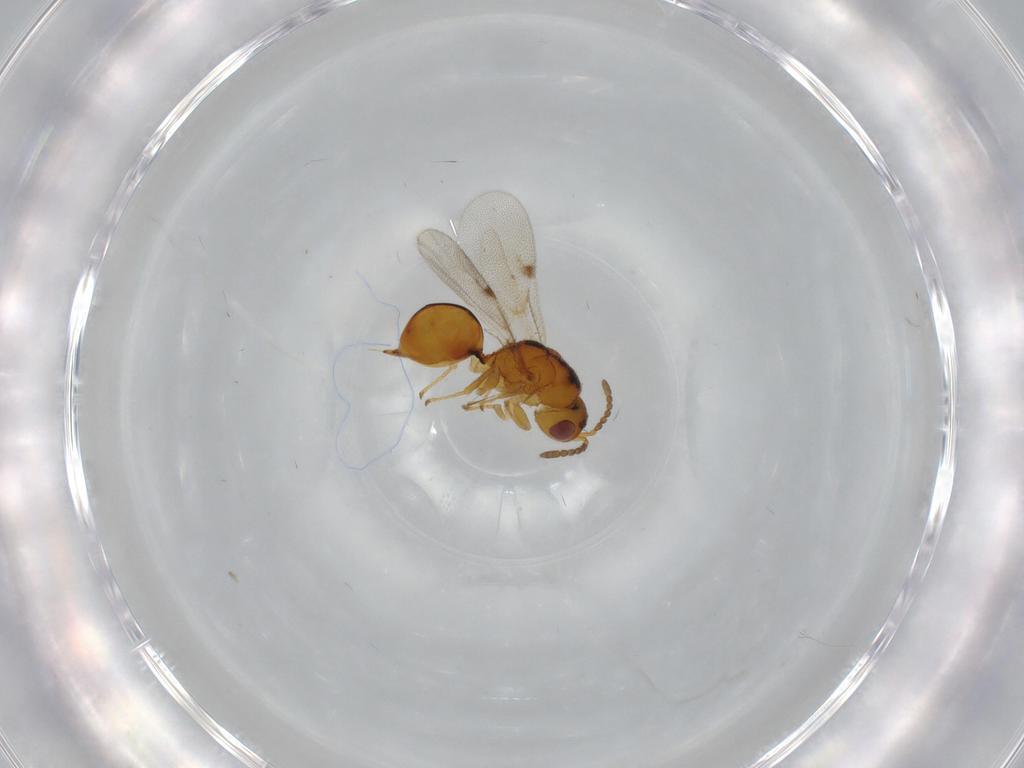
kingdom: Animalia
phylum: Arthropoda
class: Insecta
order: Hymenoptera
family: Eurytomidae
